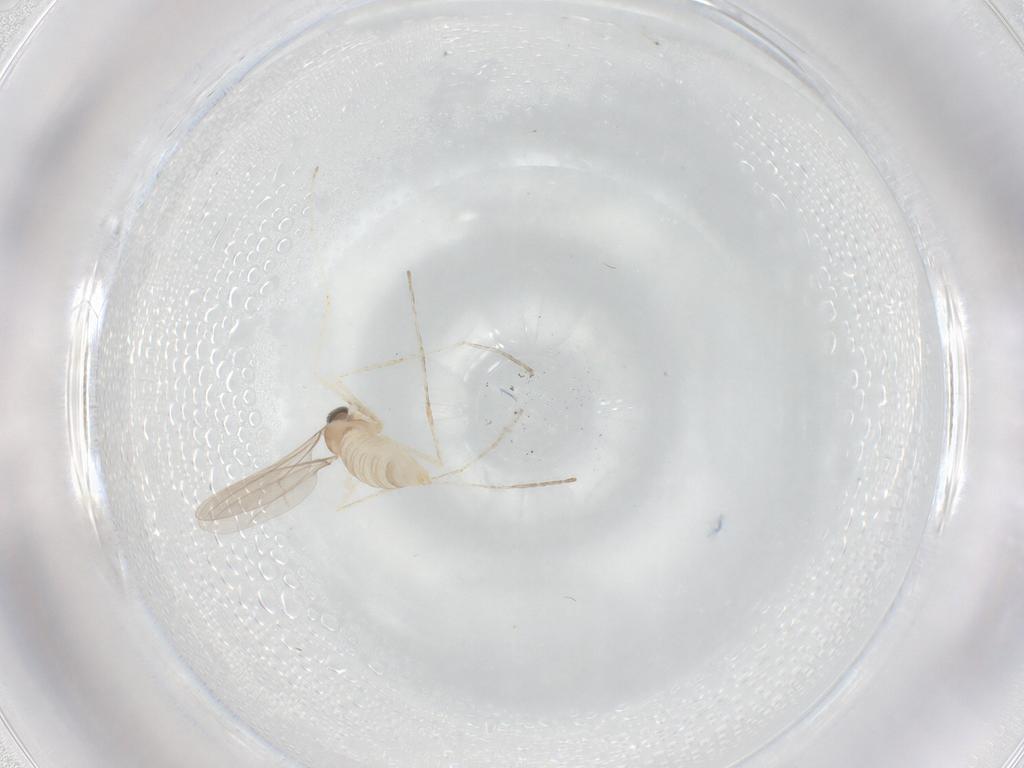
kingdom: Animalia
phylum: Arthropoda
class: Insecta
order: Diptera
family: Cecidomyiidae
